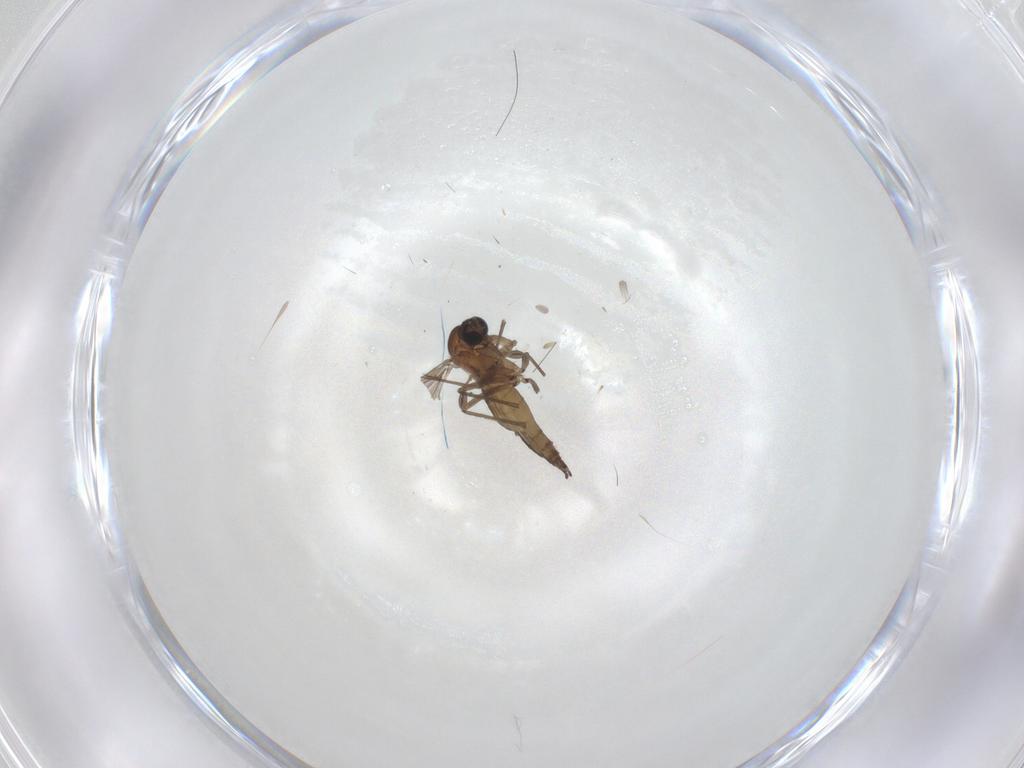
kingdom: Animalia
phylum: Arthropoda
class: Insecta
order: Diptera
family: Sciaridae
